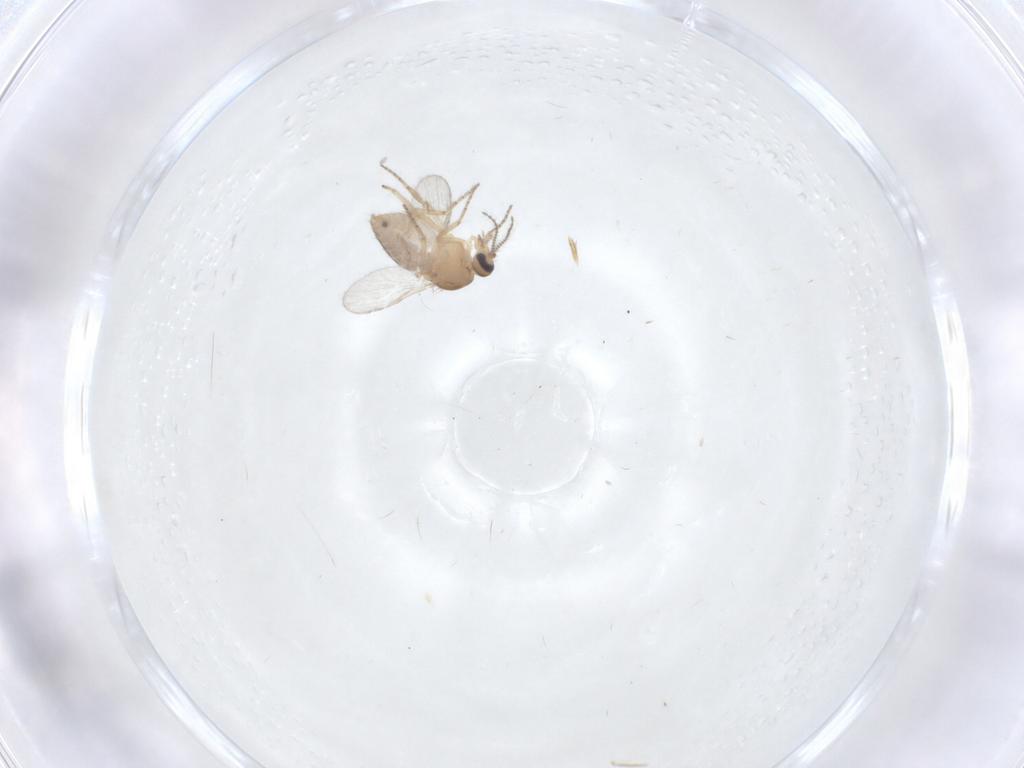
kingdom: Animalia
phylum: Arthropoda
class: Insecta
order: Diptera
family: Ceratopogonidae
